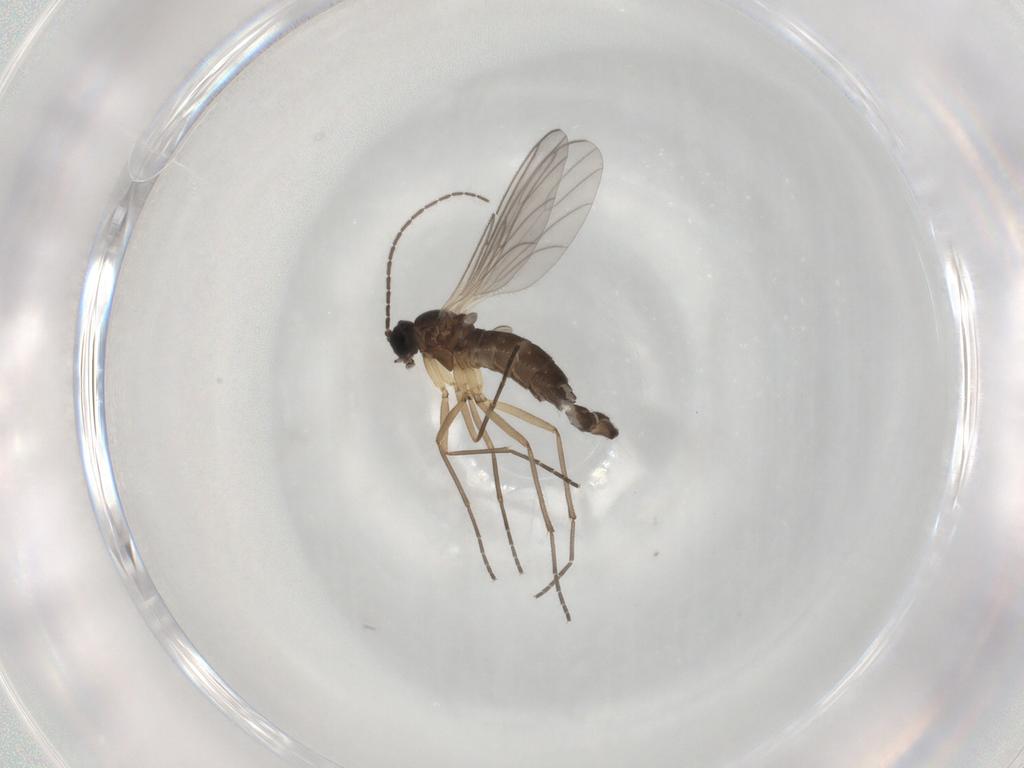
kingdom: Animalia
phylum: Arthropoda
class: Insecta
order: Diptera
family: Sciaridae
